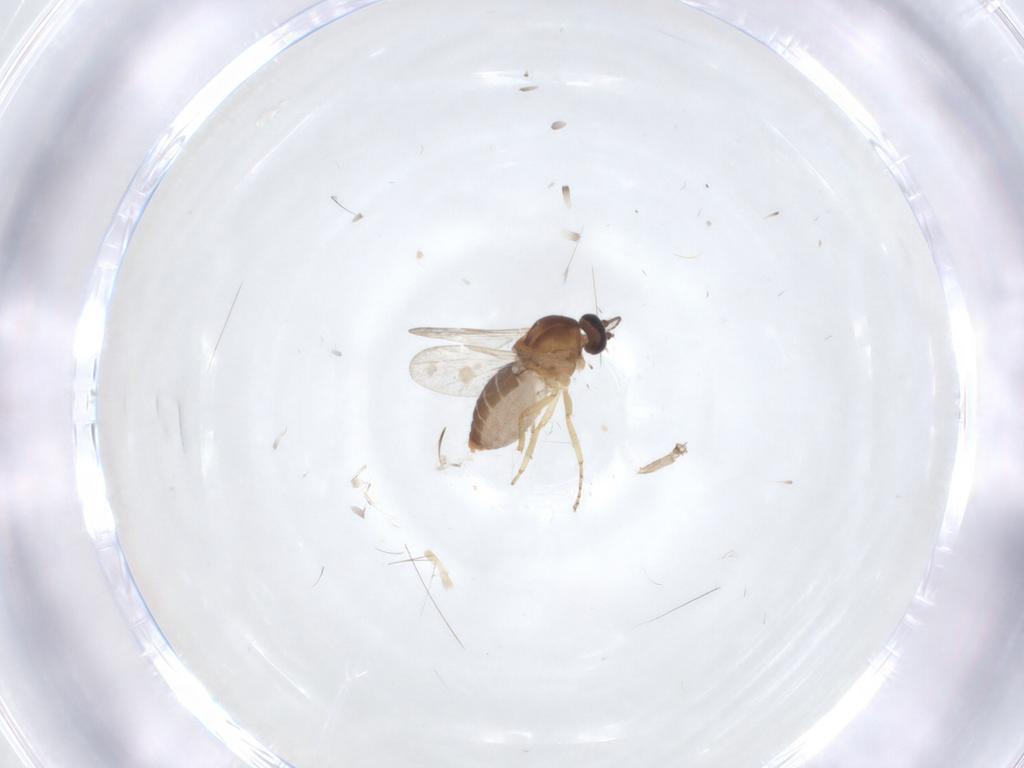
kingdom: Animalia
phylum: Arthropoda
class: Insecta
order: Diptera
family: Ceratopogonidae
